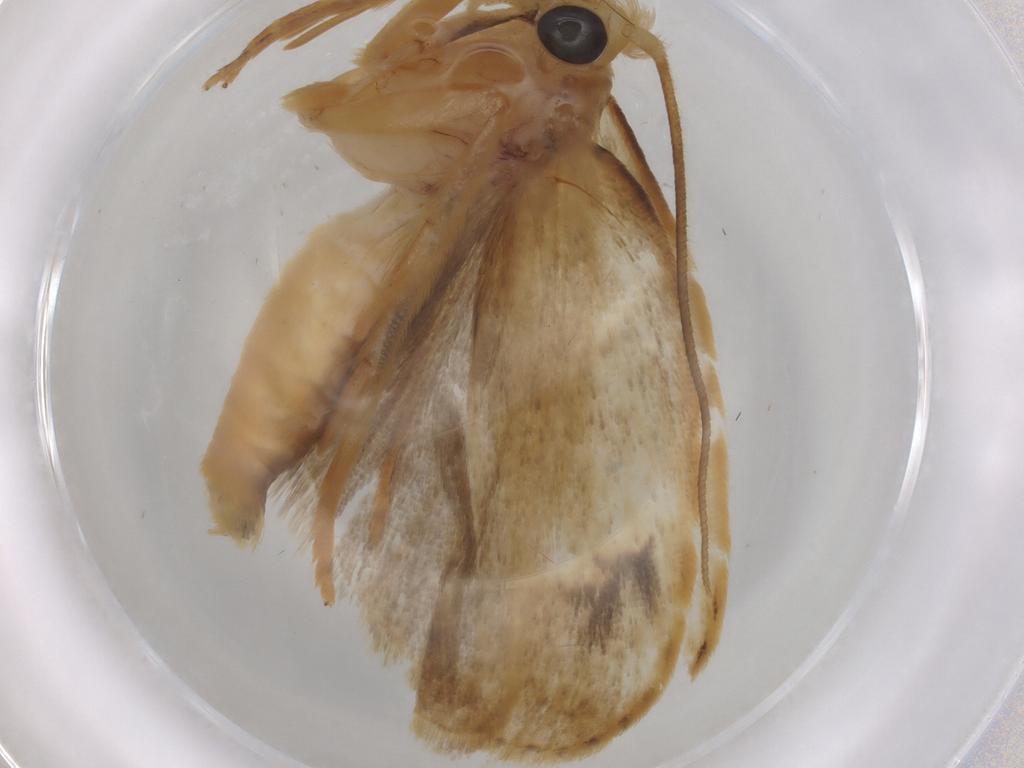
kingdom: Animalia
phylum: Arthropoda
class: Insecta
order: Lepidoptera
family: Depressariidae
